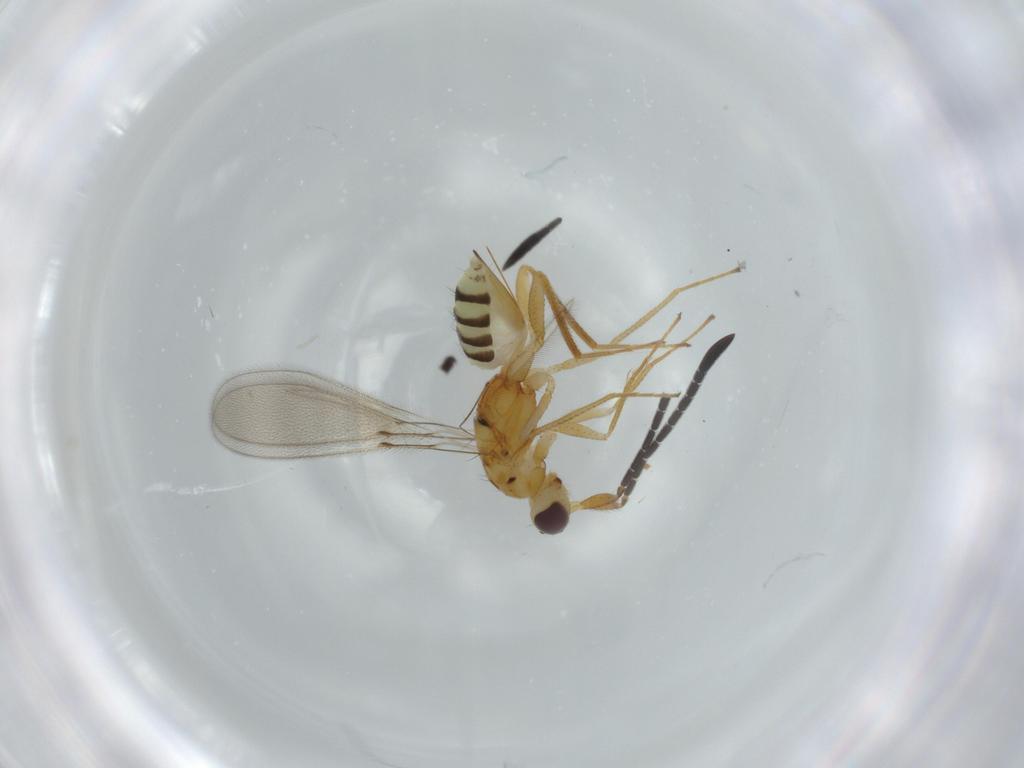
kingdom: Animalia
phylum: Arthropoda
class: Insecta
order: Hymenoptera
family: Mymaridae
